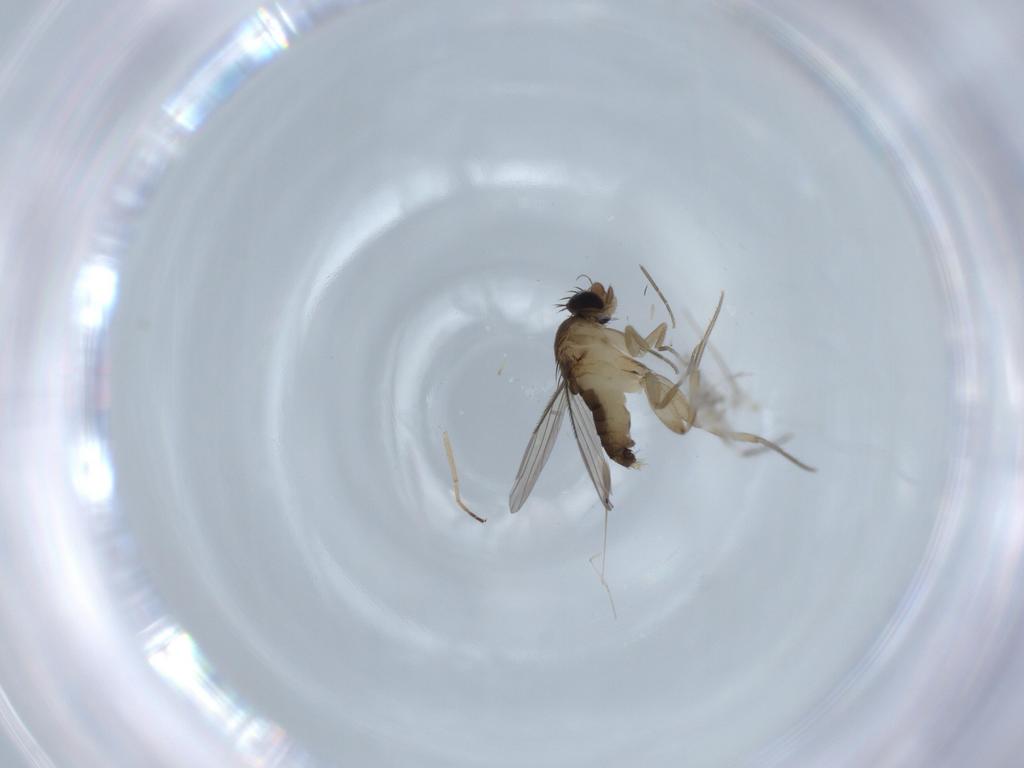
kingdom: Animalia
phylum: Arthropoda
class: Insecta
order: Diptera
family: Phoridae
